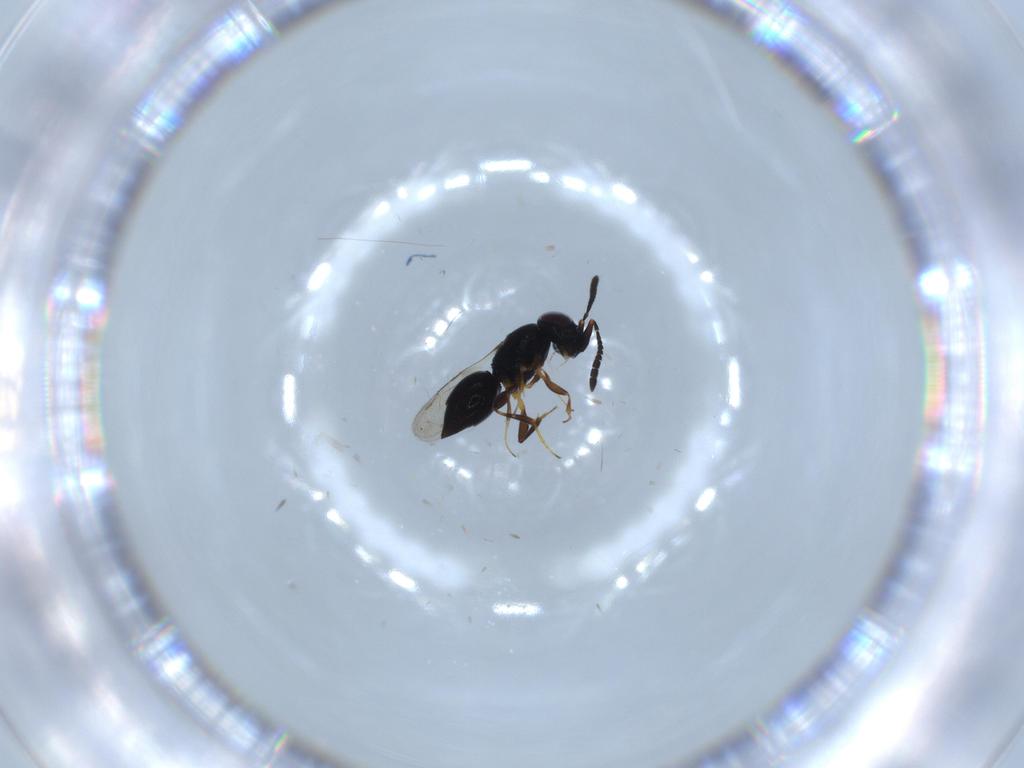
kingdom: Animalia
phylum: Arthropoda
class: Insecta
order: Hymenoptera
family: Ceraphronidae
